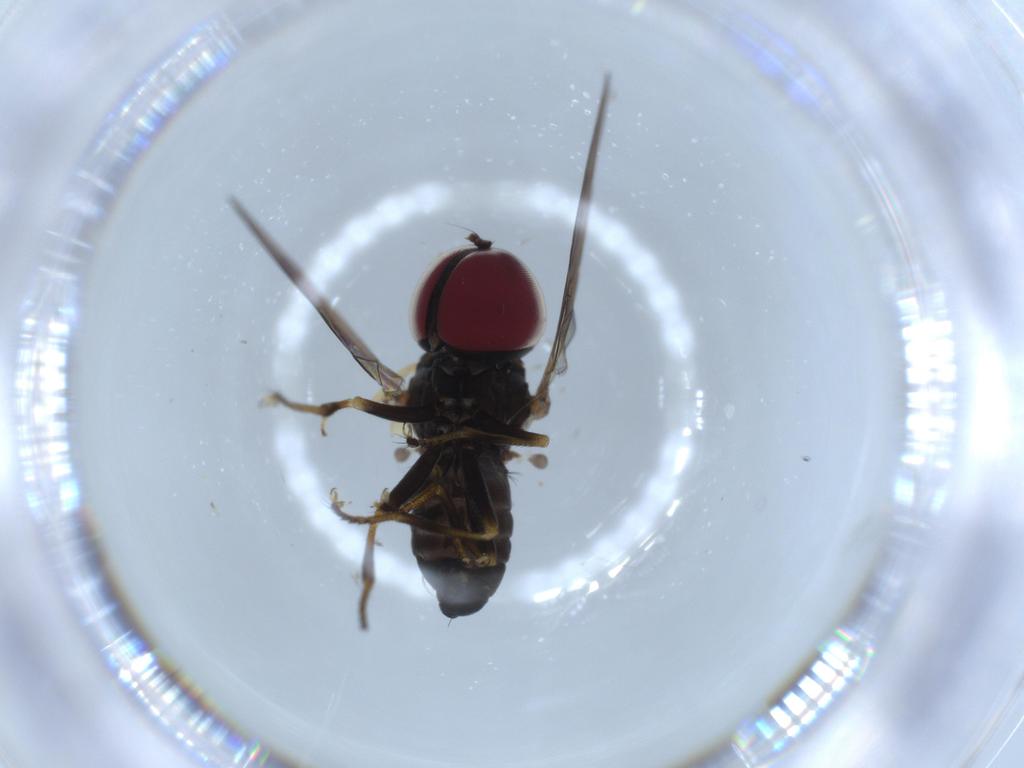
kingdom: Animalia
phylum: Arthropoda
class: Insecta
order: Diptera
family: Pipunculidae
